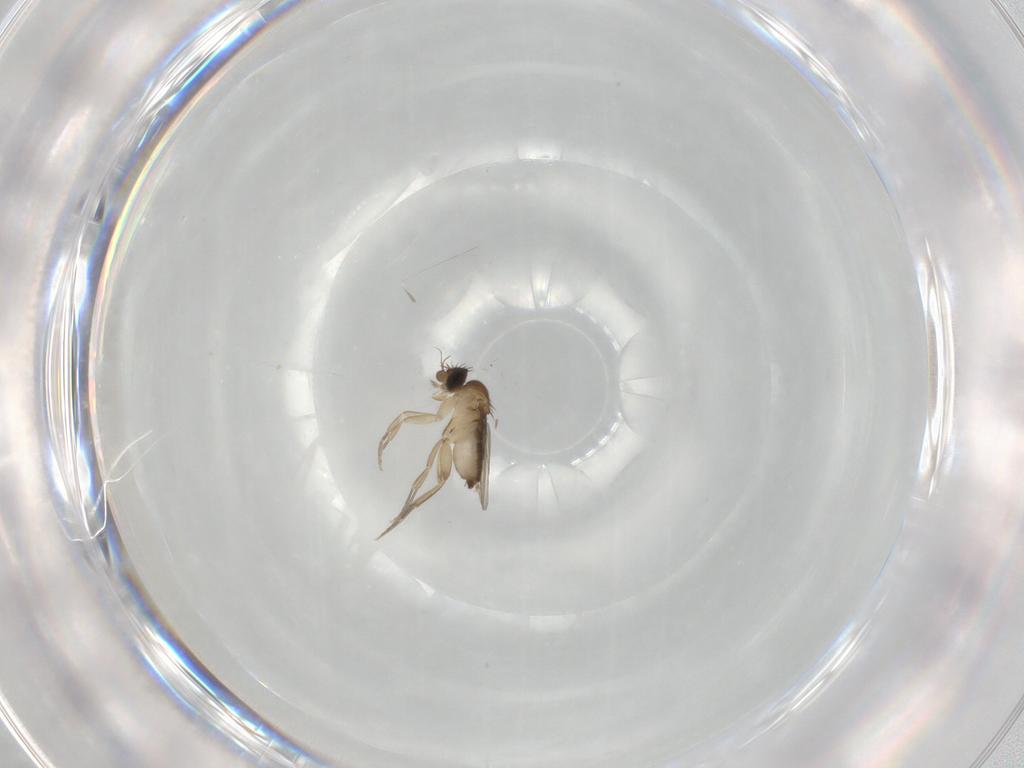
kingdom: Animalia
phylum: Arthropoda
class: Insecta
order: Diptera
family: Phoridae
